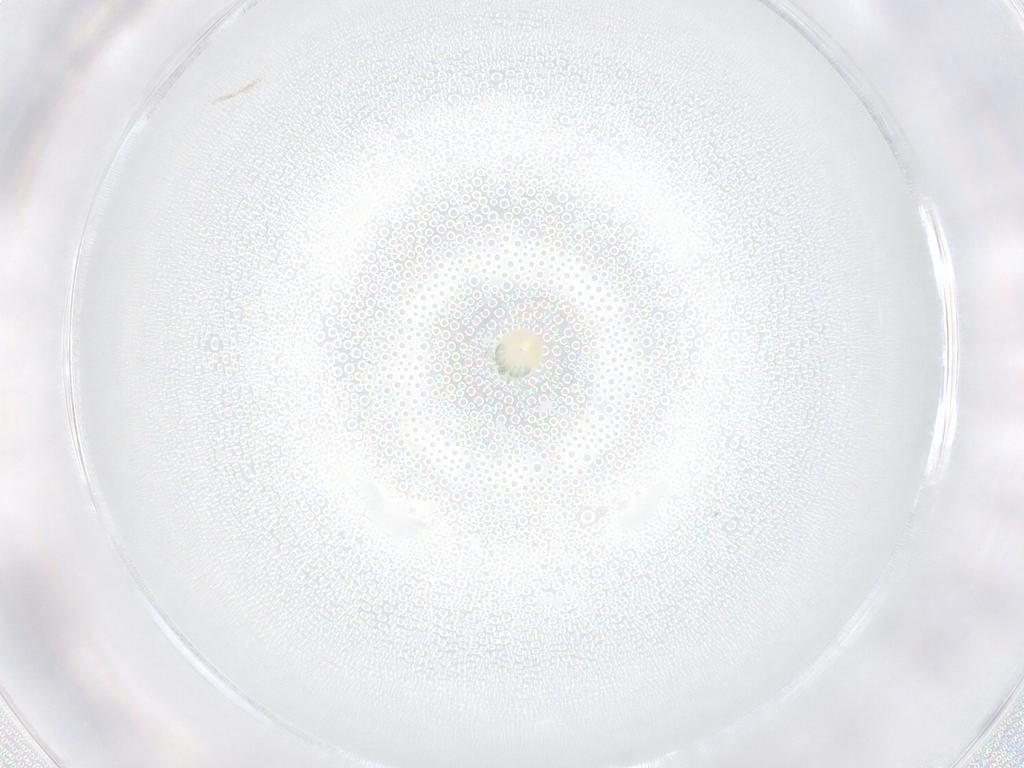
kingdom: Animalia
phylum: Arthropoda
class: Arachnida
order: Trombidiformes
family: Arrenuridae
